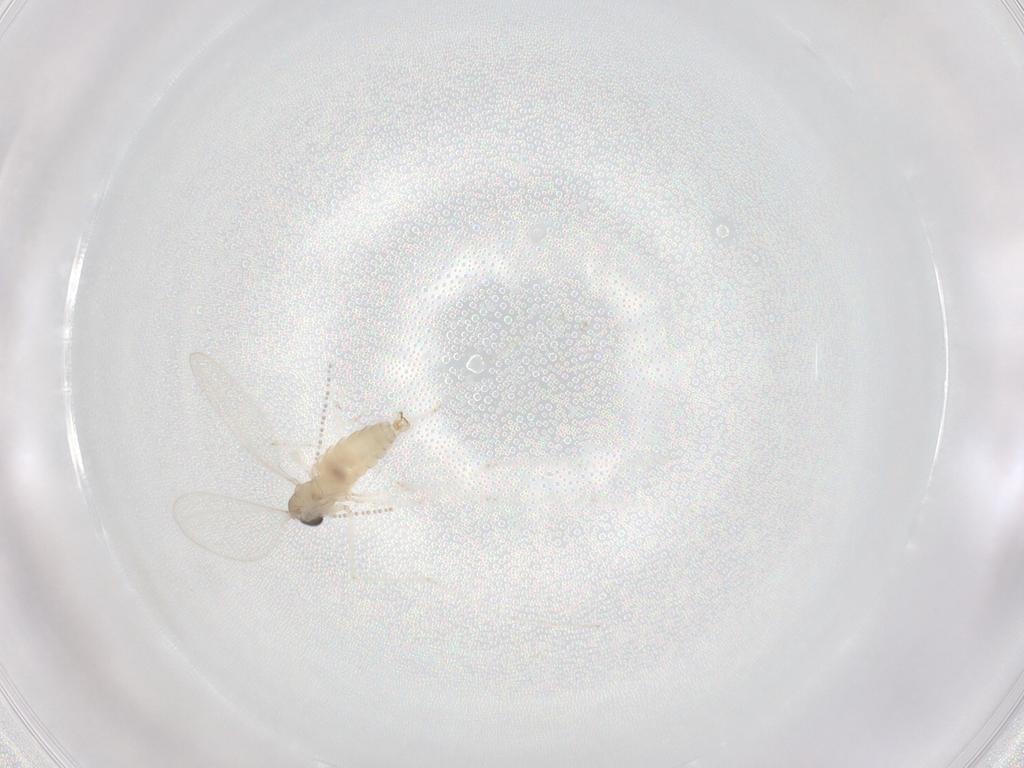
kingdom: Animalia
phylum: Arthropoda
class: Insecta
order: Diptera
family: Cecidomyiidae
